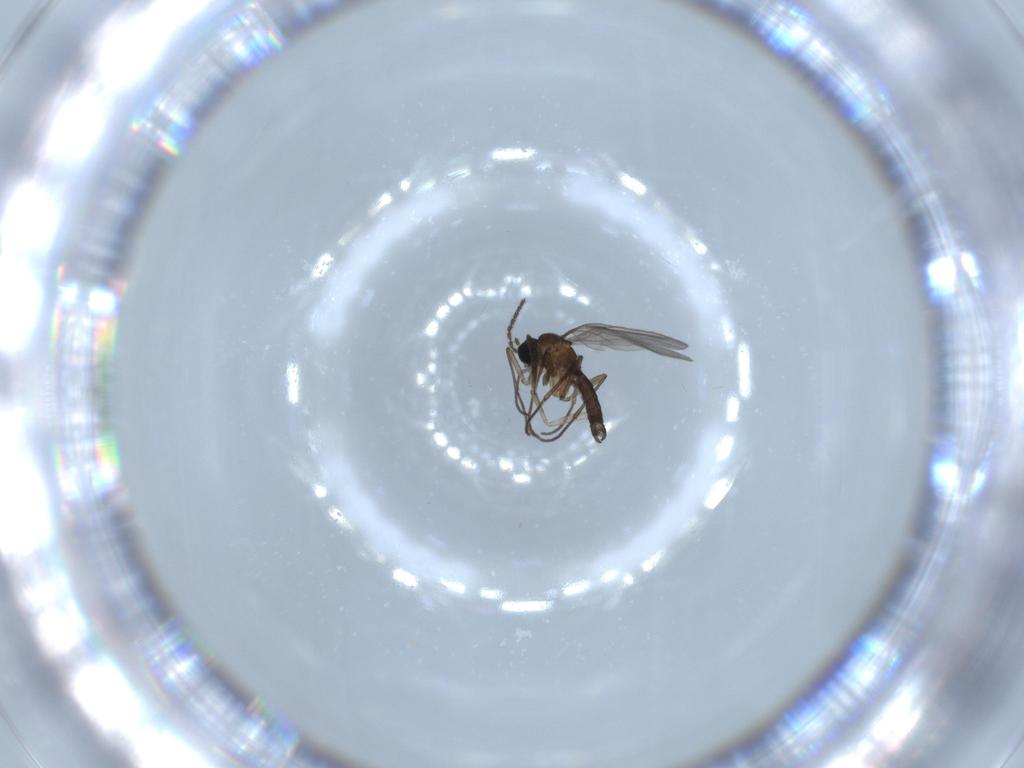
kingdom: Animalia
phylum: Arthropoda
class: Insecta
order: Diptera
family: Sciaridae
